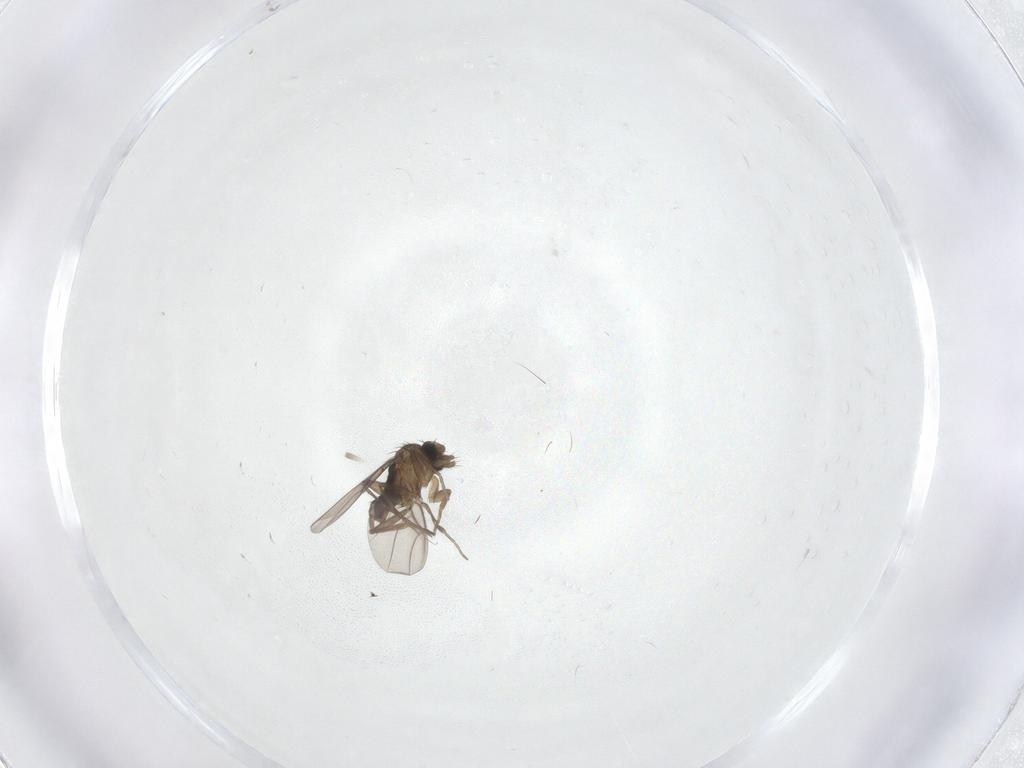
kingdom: Animalia
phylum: Arthropoda
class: Insecta
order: Diptera
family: Phoridae
